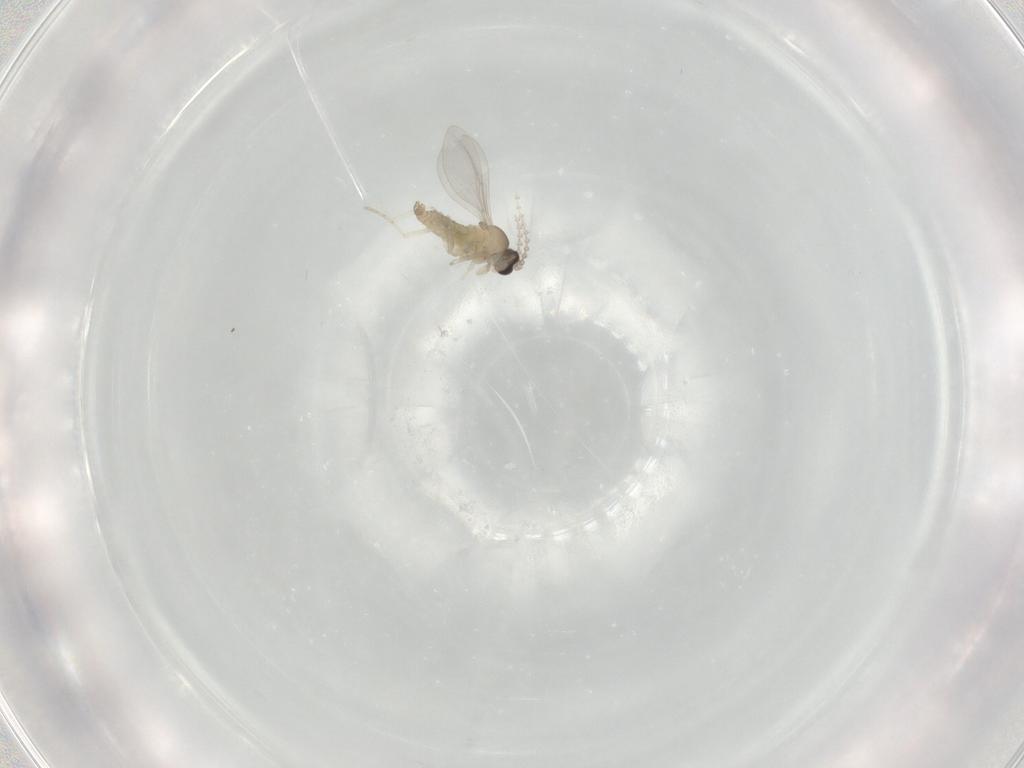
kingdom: Animalia
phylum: Arthropoda
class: Insecta
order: Diptera
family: Cecidomyiidae
